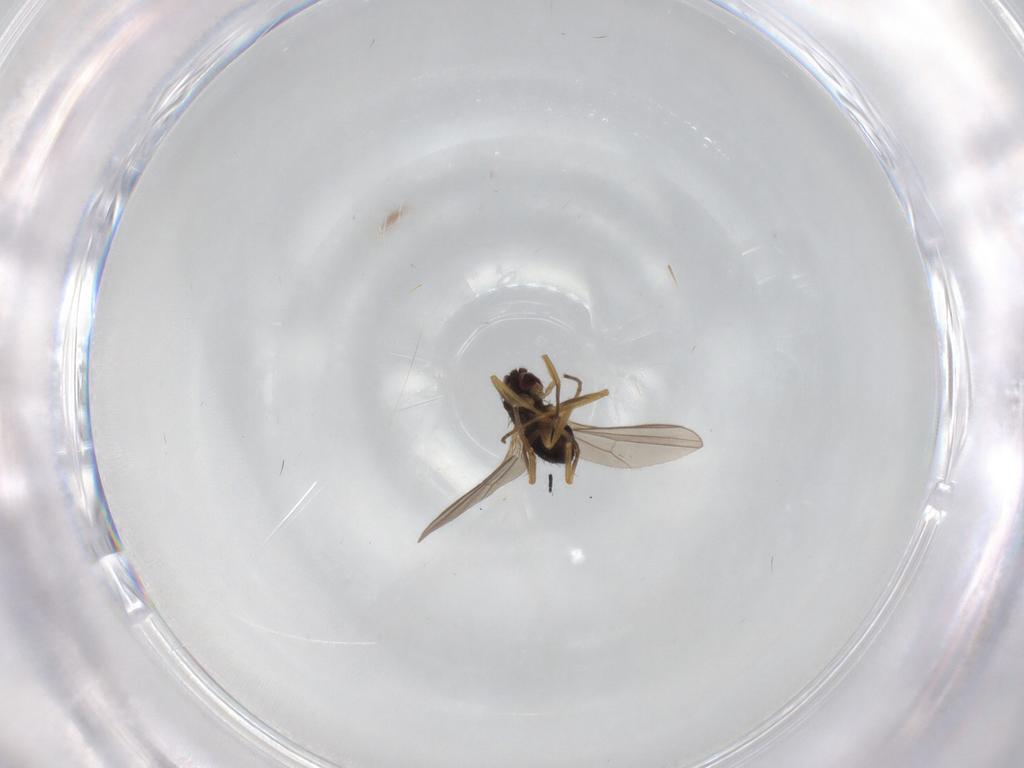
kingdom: Animalia
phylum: Arthropoda
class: Insecta
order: Diptera
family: Dolichopodidae
